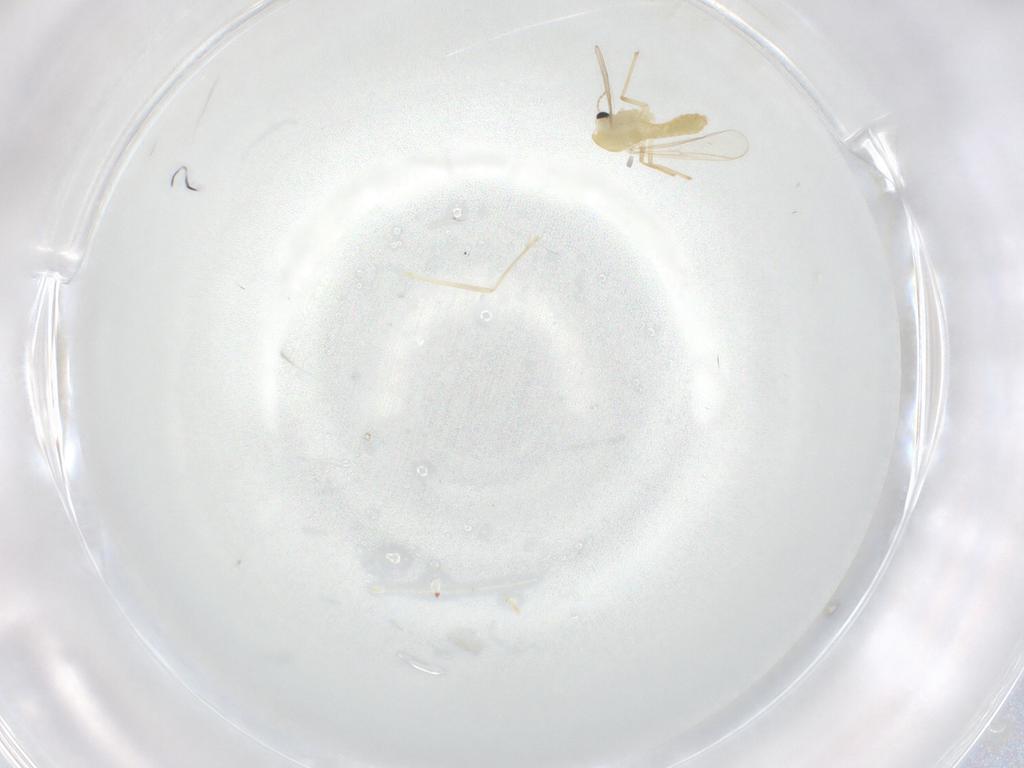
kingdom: Animalia
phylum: Arthropoda
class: Insecta
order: Diptera
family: Chironomidae
